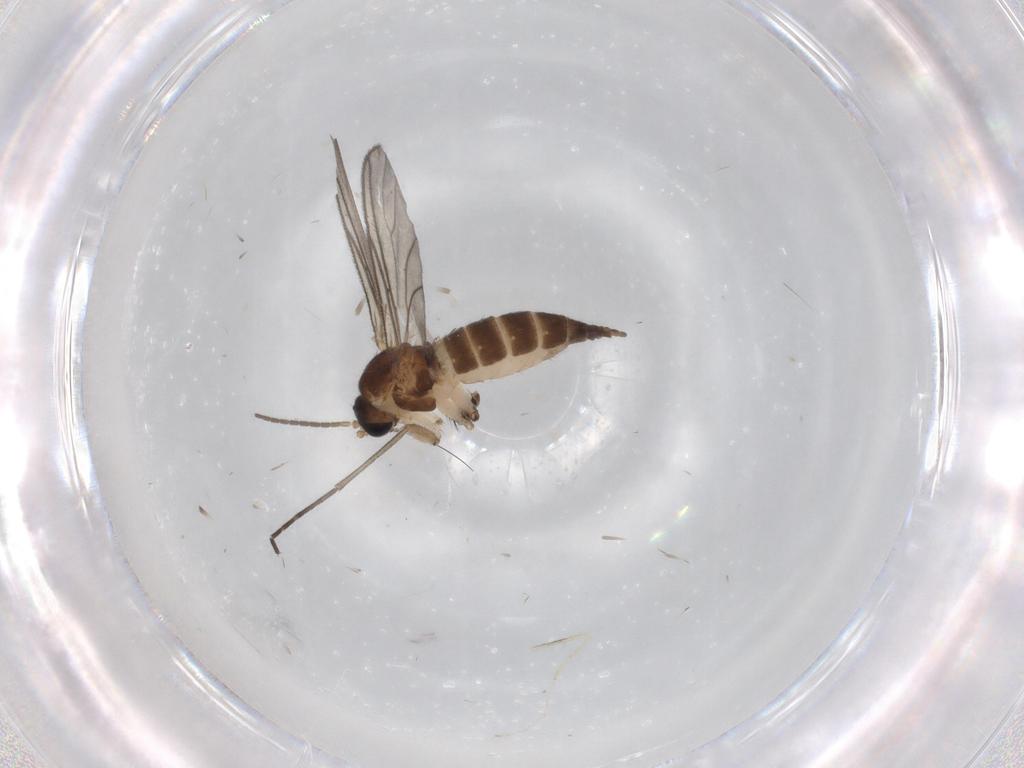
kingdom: Animalia
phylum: Arthropoda
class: Insecta
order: Diptera
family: Sciaridae
